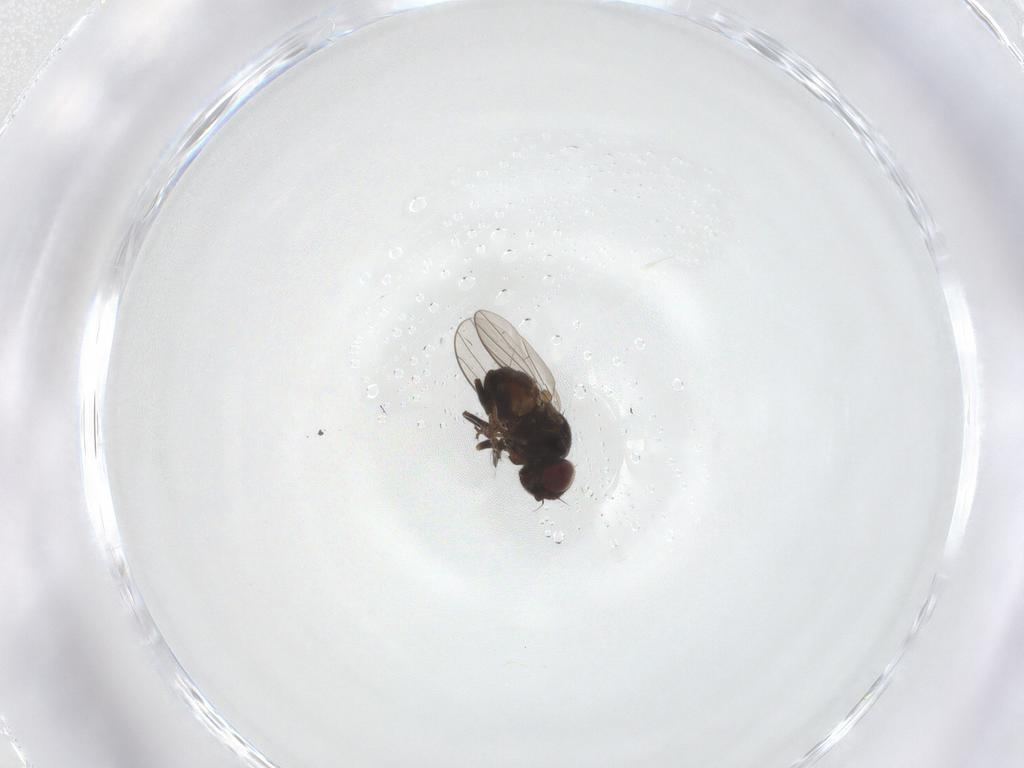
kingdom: Animalia
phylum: Arthropoda
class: Insecta
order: Diptera
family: Chloropidae
